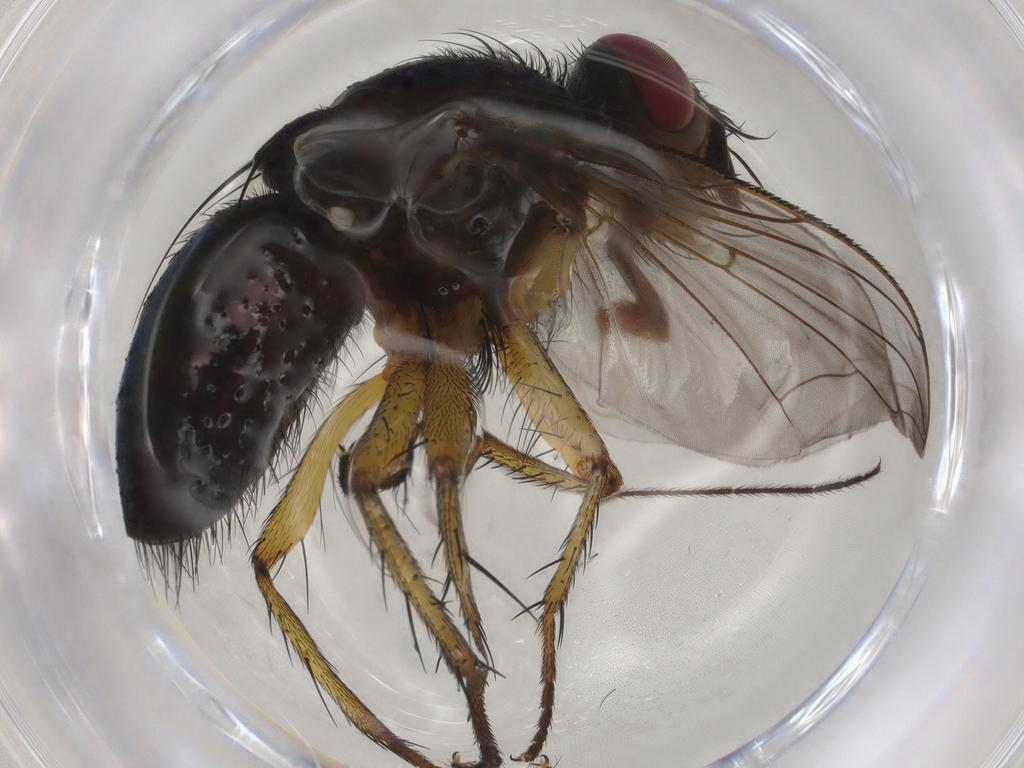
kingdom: Animalia
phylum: Arthropoda
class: Insecta
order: Diptera
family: Tachinidae
